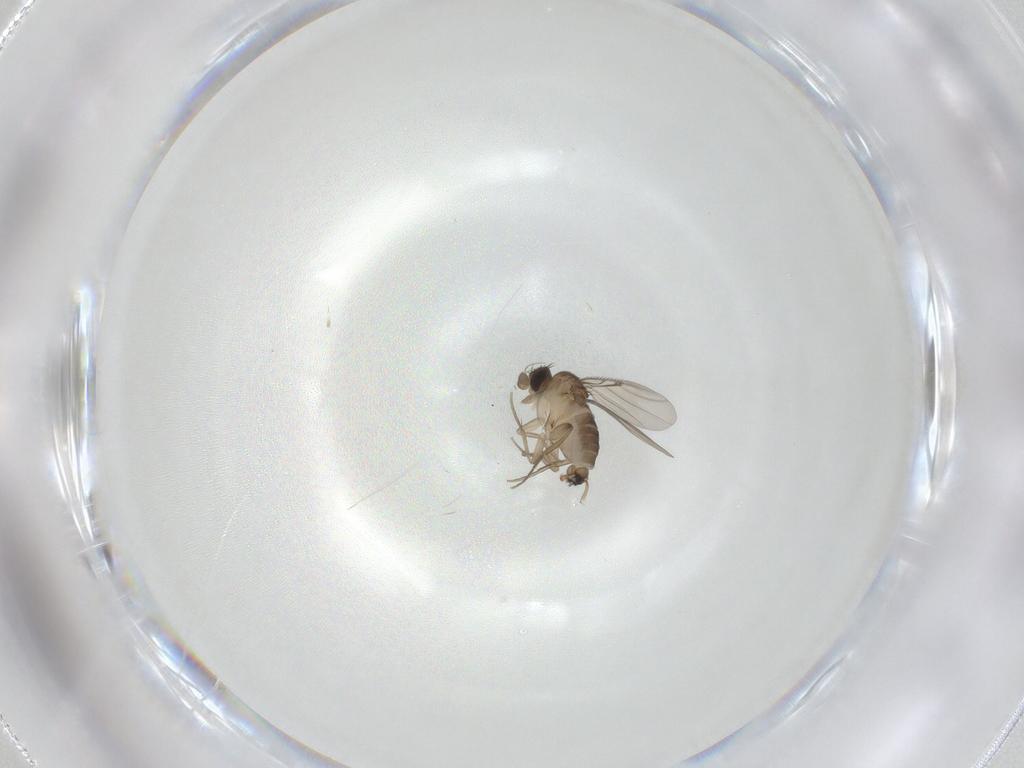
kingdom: Animalia
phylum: Arthropoda
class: Insecta
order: Diptera
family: Phoridae
